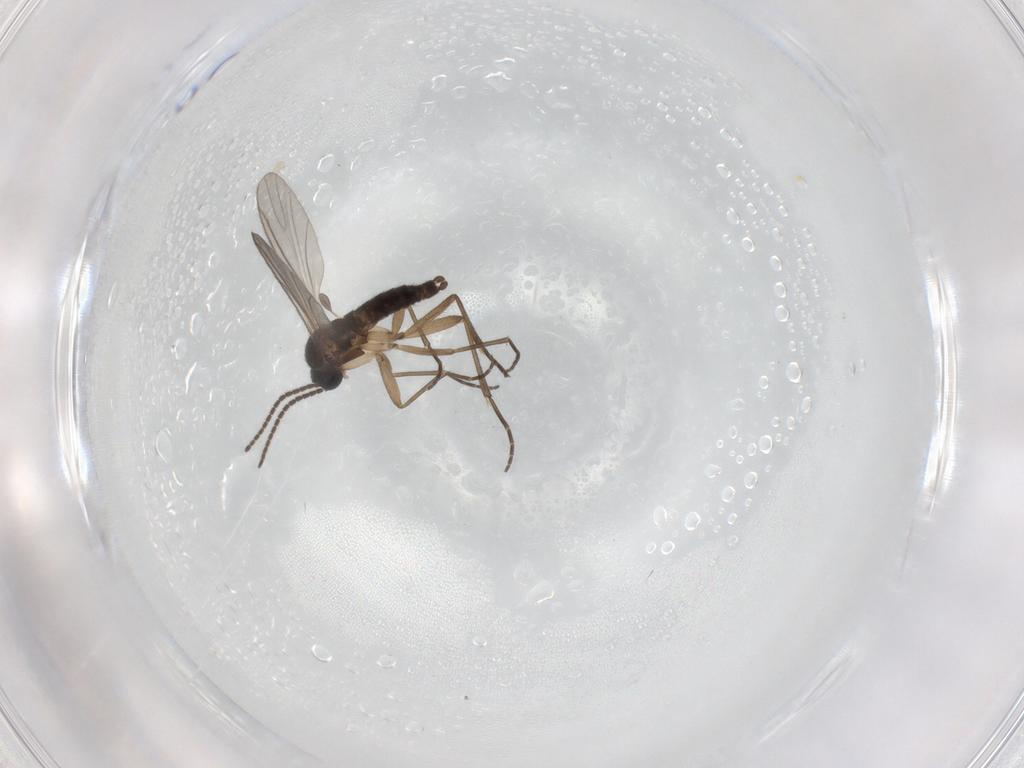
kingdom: Animalia
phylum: Arthropoda
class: Insecta
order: Diptera
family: Sciaridae
